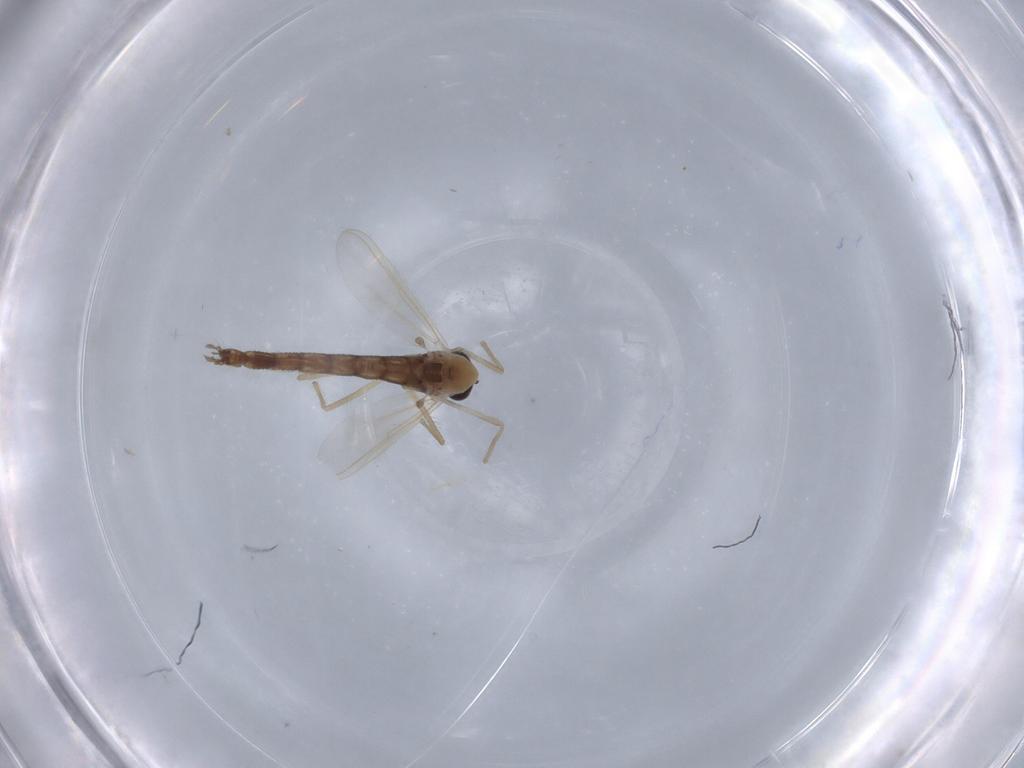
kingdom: Animalia
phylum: Arthropoda
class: Insecta
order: Diptera
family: Chironomidae
